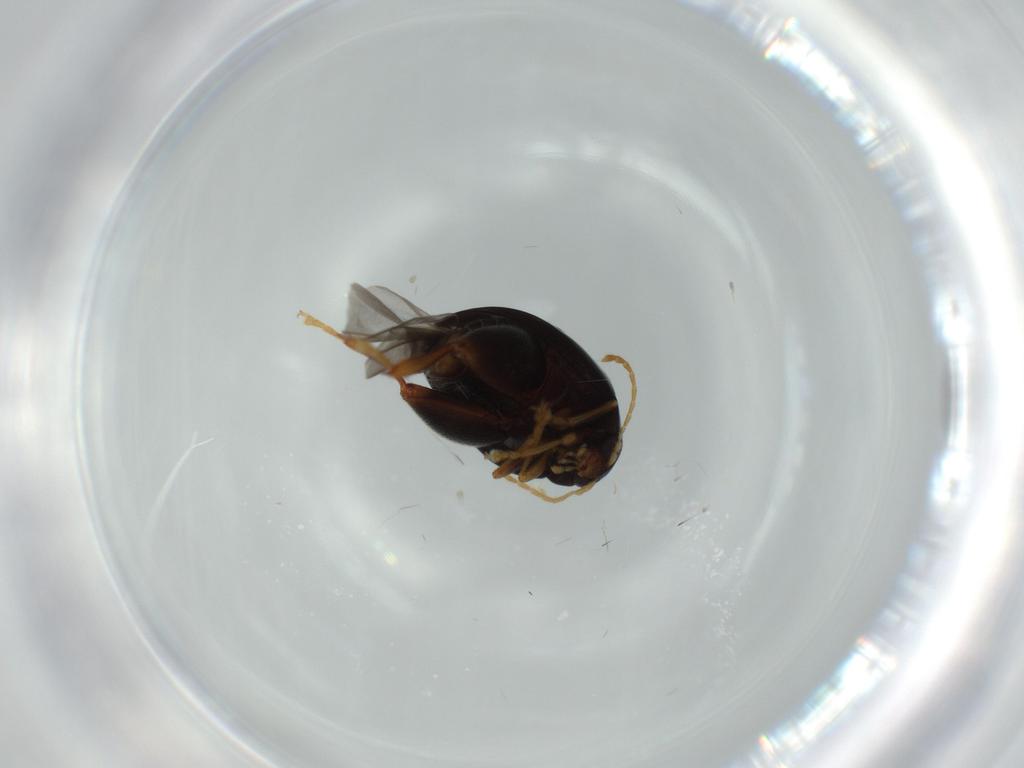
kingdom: Animalia
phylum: Arthropoda
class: Insecta
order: Coleoptera
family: Chrysomelidae
